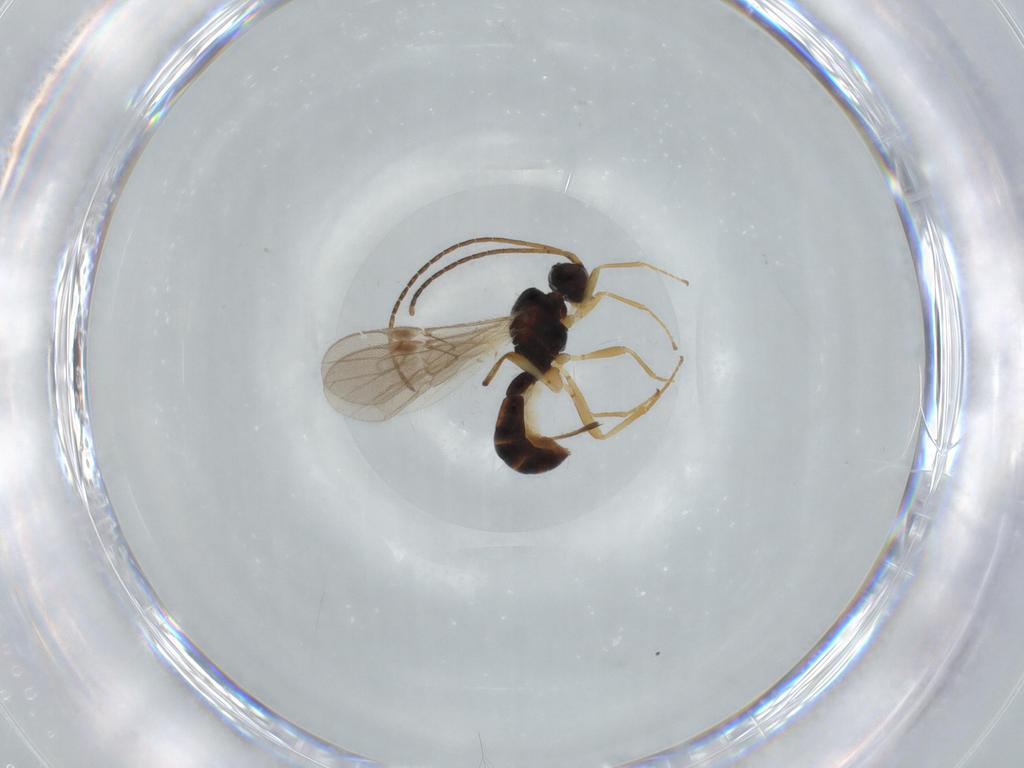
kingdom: Animalia
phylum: Arthropoda
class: Insecta
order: Hymenoptera
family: Braconidae
